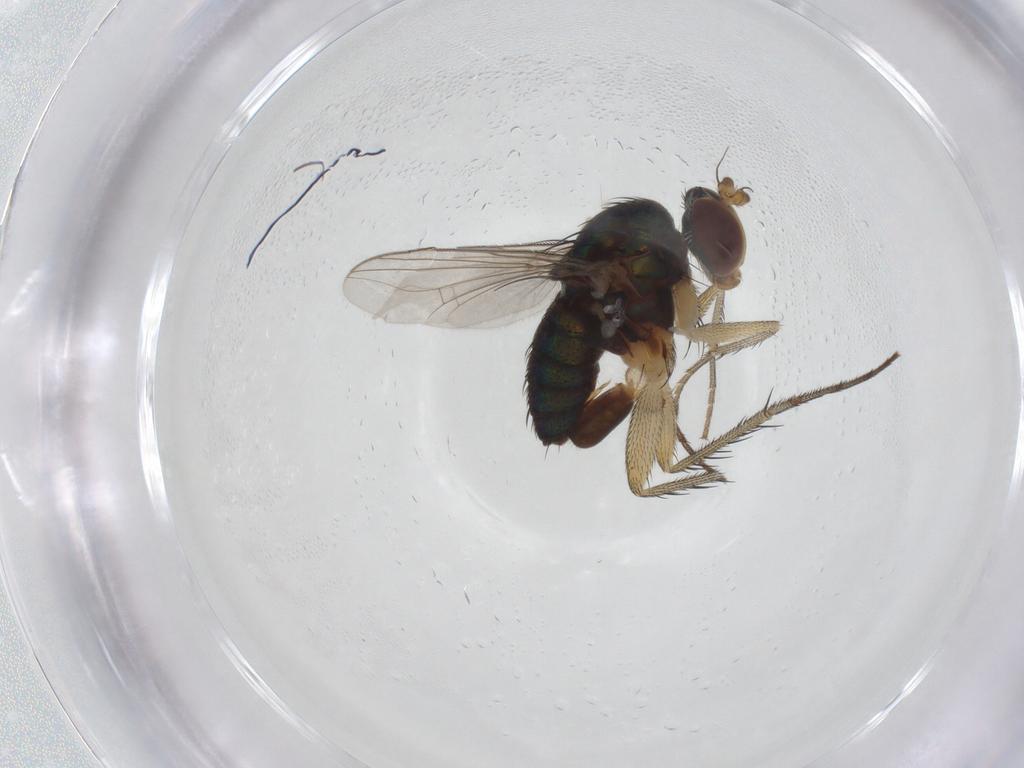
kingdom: Animalia
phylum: Arthropoda
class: Insecta
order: Diptera
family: Dolichopodidae
